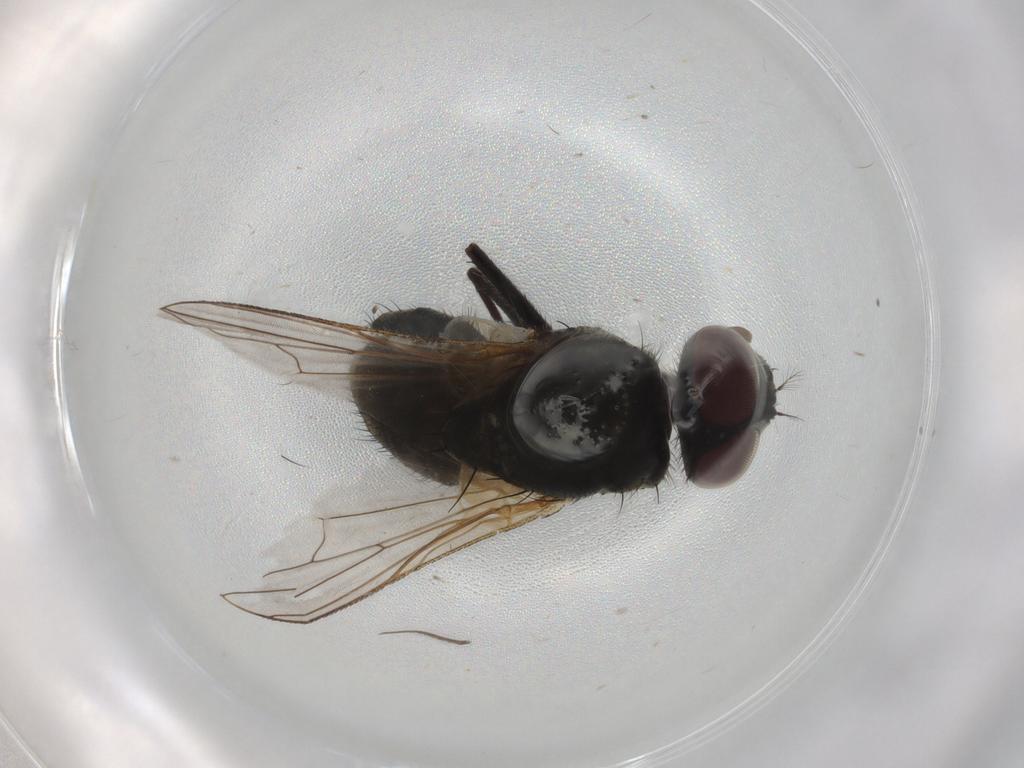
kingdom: Animalia
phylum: Arthropoda
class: Insecta
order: Diptera
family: Muscidae
